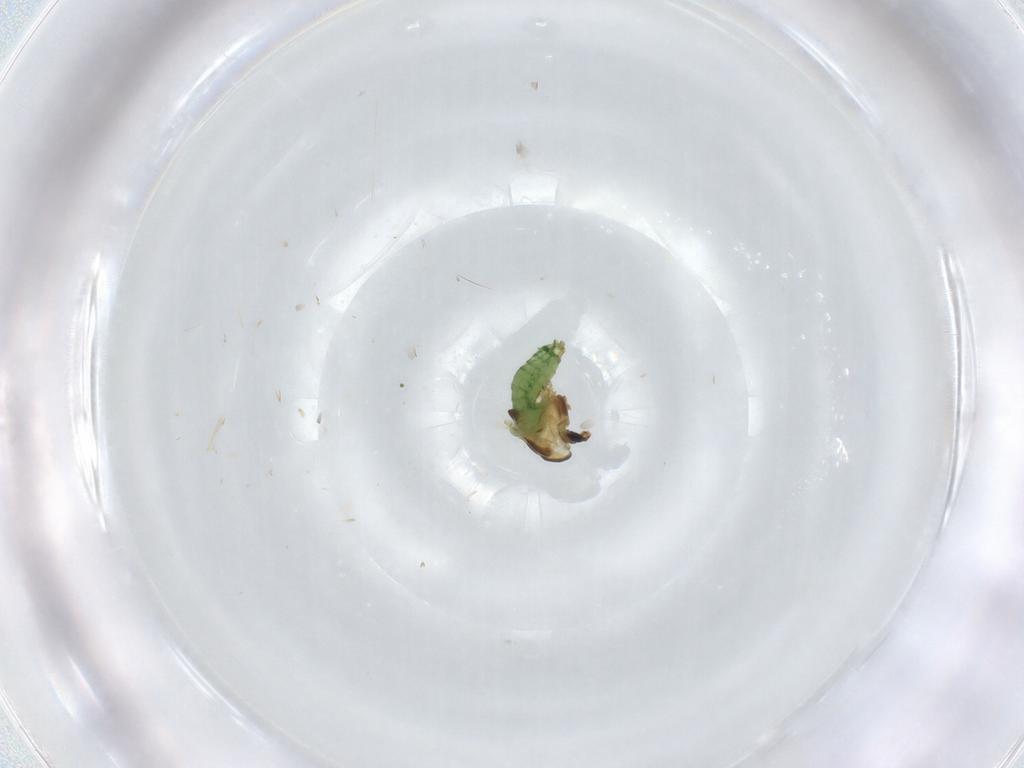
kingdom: Animalia
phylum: Arthropoda
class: Insecta
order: Diptera
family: Chironomidae
